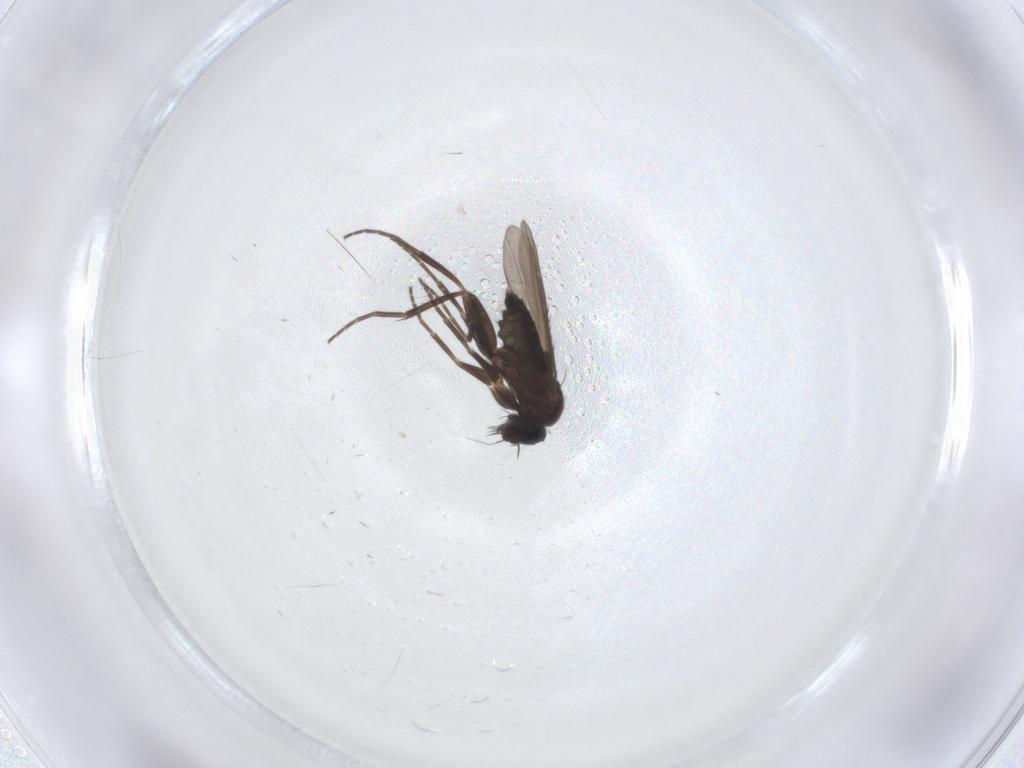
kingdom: Animalia
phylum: Arthropoda
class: Insecta
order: Diptera
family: Phoridae
